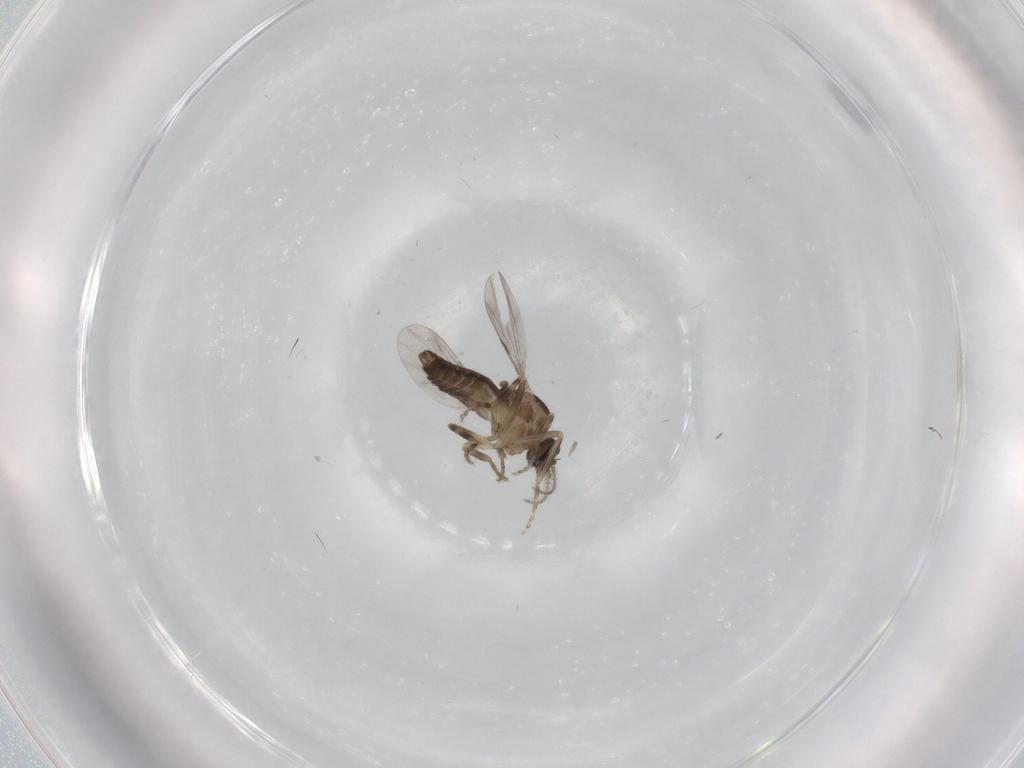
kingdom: Animalia
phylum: Arthropoda
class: Insecta
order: Diptera
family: Ceratopogonidae
